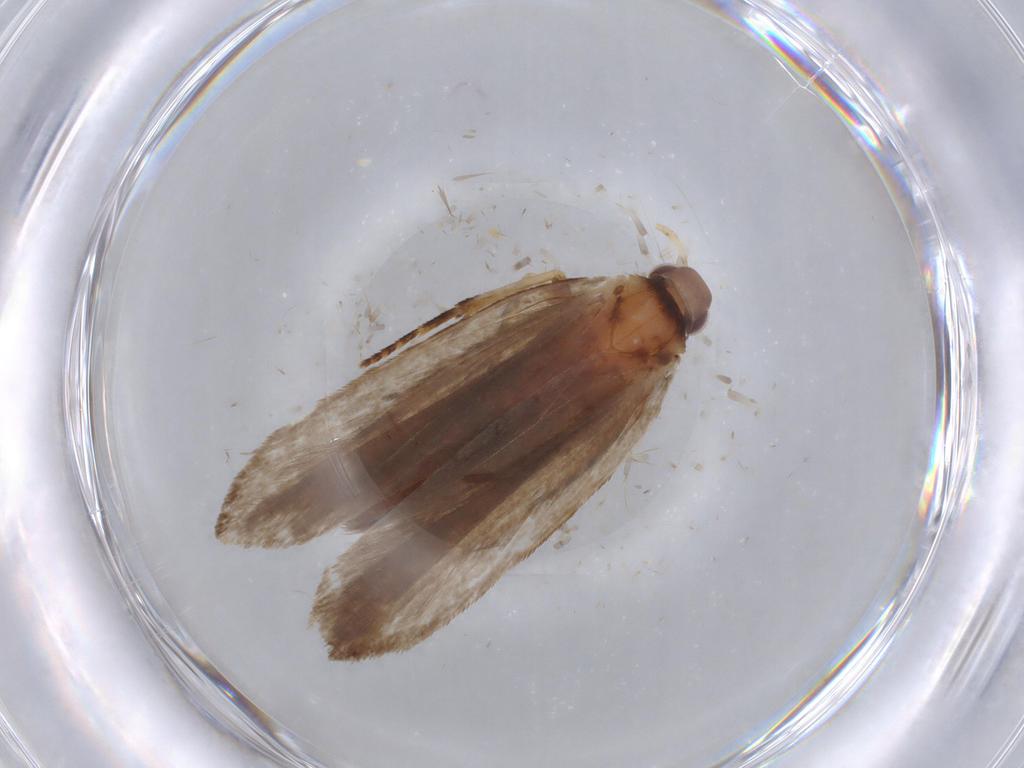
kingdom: Animalia
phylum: Arthropoda
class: Insecta
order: Lepidoptera
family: Gelechiidae
